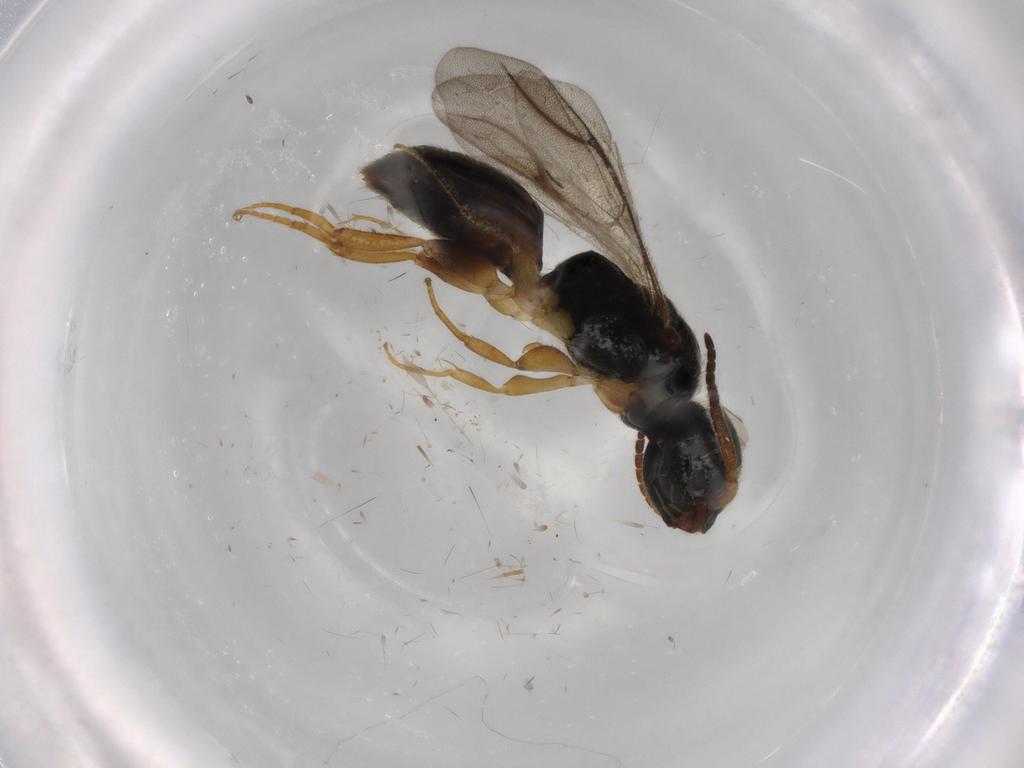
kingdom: Animalia
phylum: Arthropoda
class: Insecta
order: Hymenoptera
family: Bethylidae
